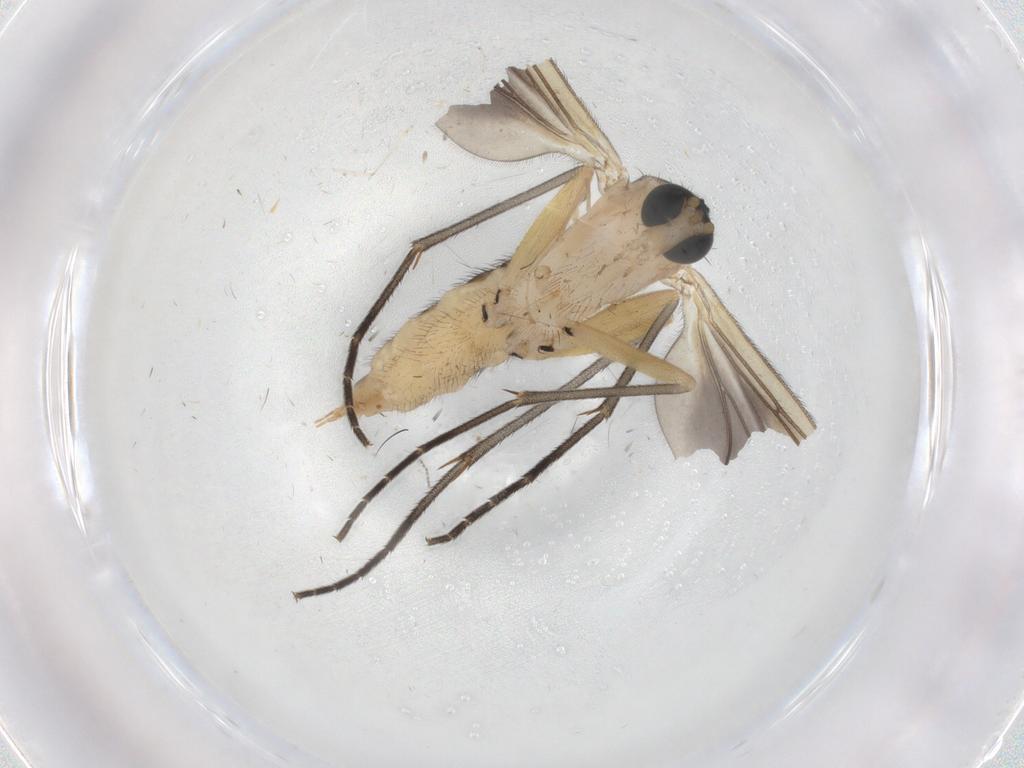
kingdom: Animalia
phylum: Arthropoda
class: Insecta
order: Diptera
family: Sciaridae
